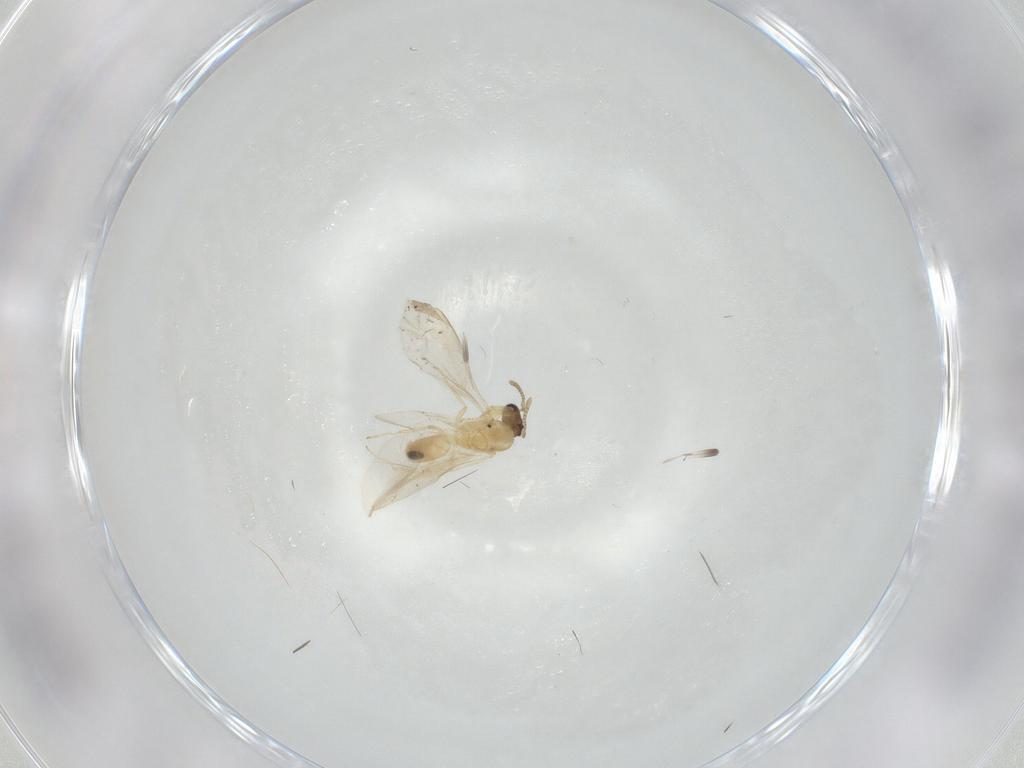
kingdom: Animalia
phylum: Arthropoda
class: Insecta
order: Hymenoptera
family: Formicidae
